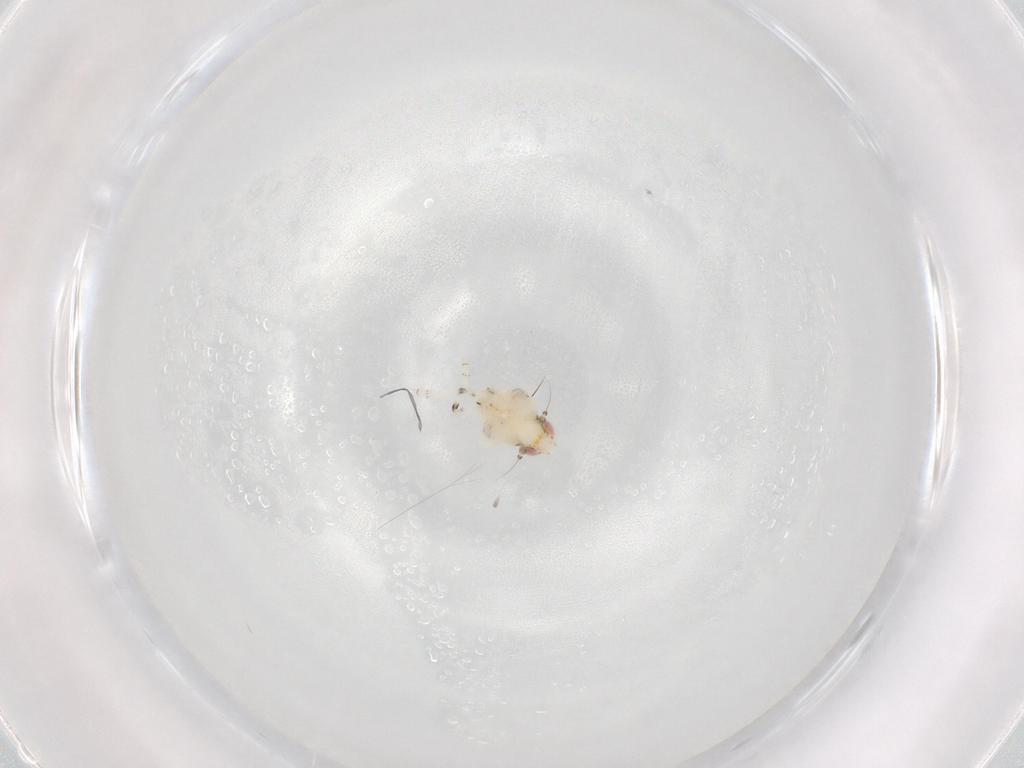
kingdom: Animalia
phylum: Arthropoda
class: Insecta
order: Hemiptera
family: Nogodinidae
